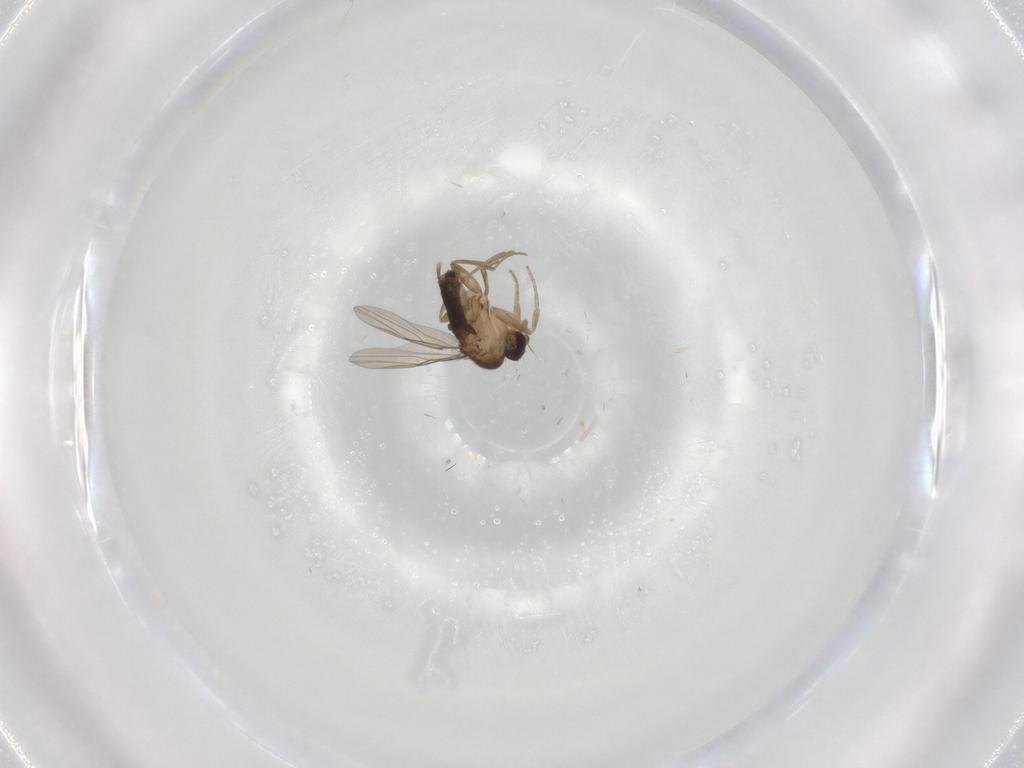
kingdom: Animalia
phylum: Arthropoda
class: Insecta
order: Diptera
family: Phoridae
